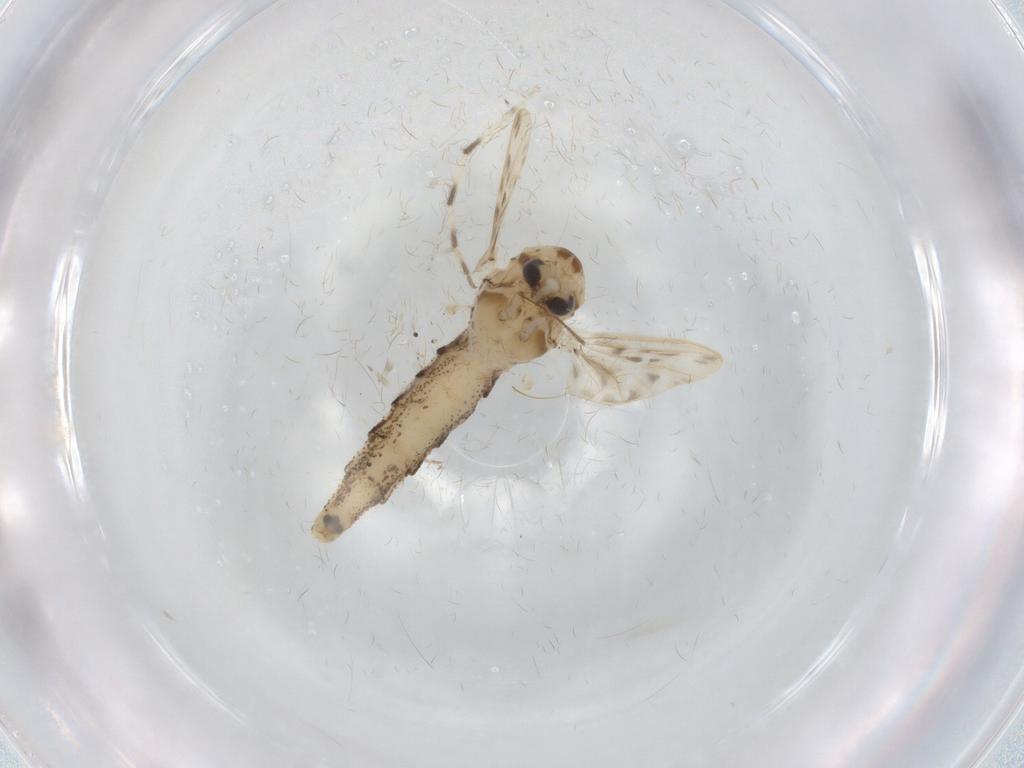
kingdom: Animalia
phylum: Arthropoda
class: Insecta
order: Diptera
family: Chaoboridae
